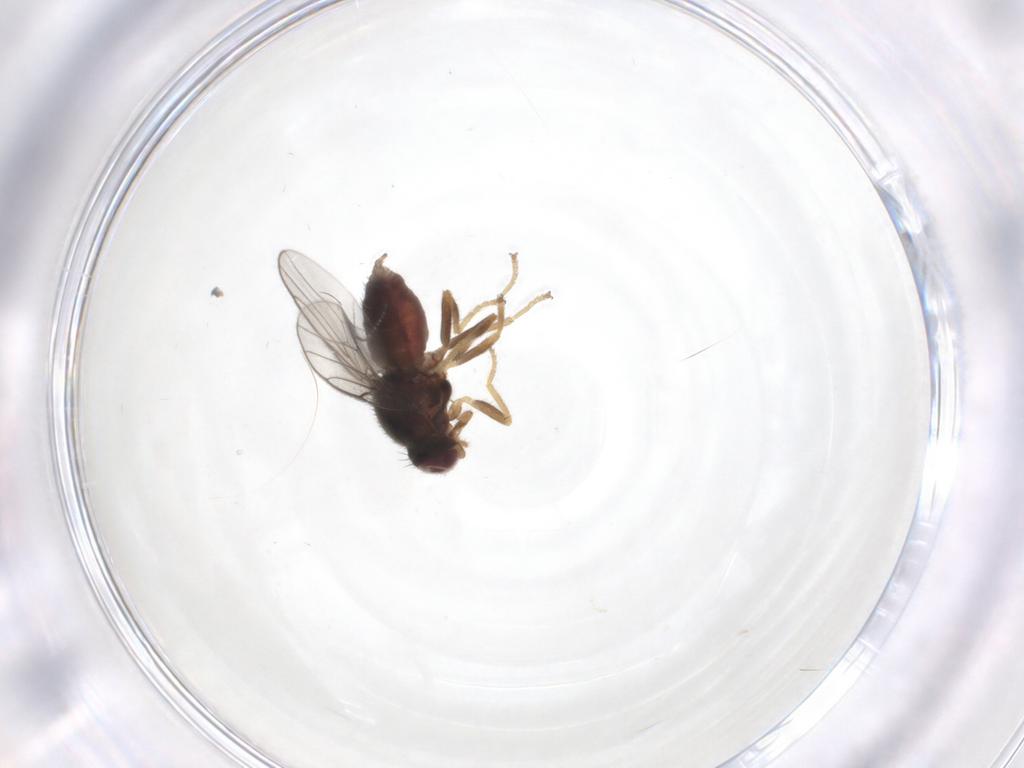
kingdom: Animalia
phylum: Arthropoda
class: Insecta
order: Diptera
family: Chloropidae
